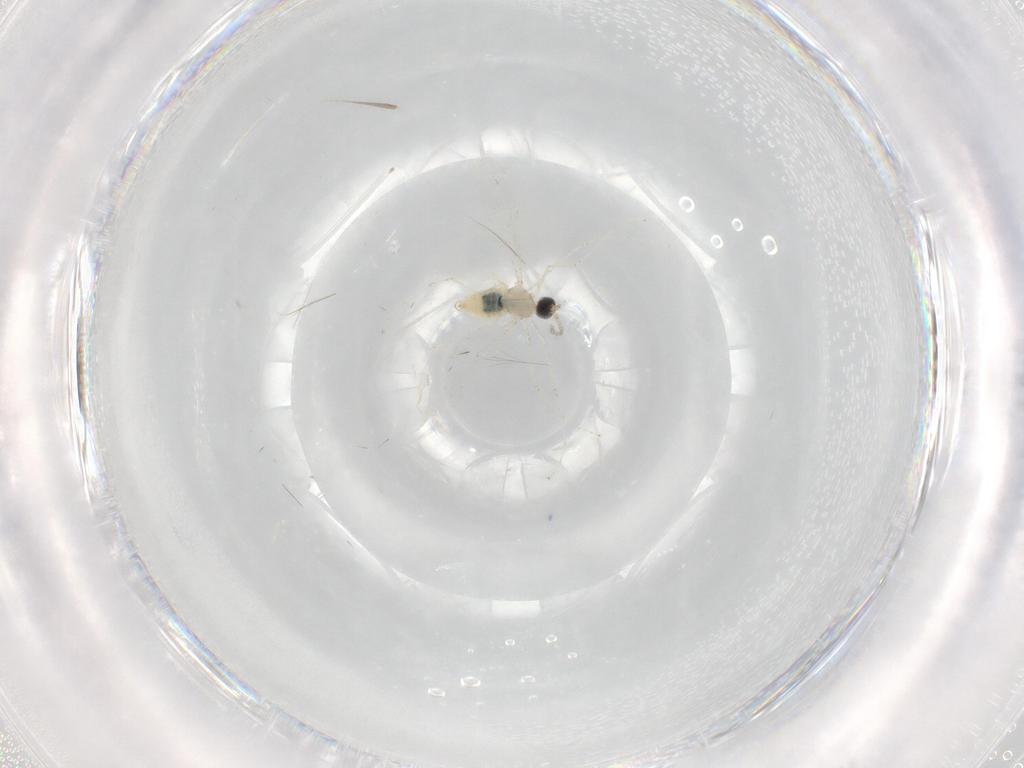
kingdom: Animalia
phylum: Arthropoda
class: Insecta
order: Diptera
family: Cecidomyiidae
